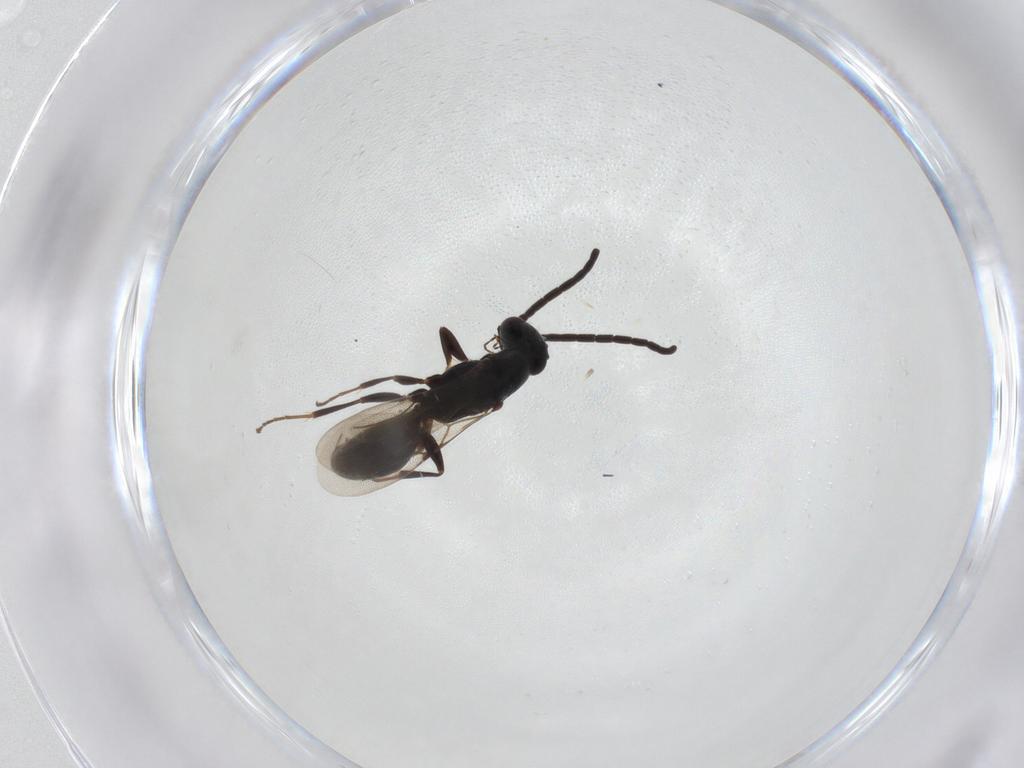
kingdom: Animalia
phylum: Arthropoda
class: Insecta
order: Hymenoptera
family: Bethylidae
